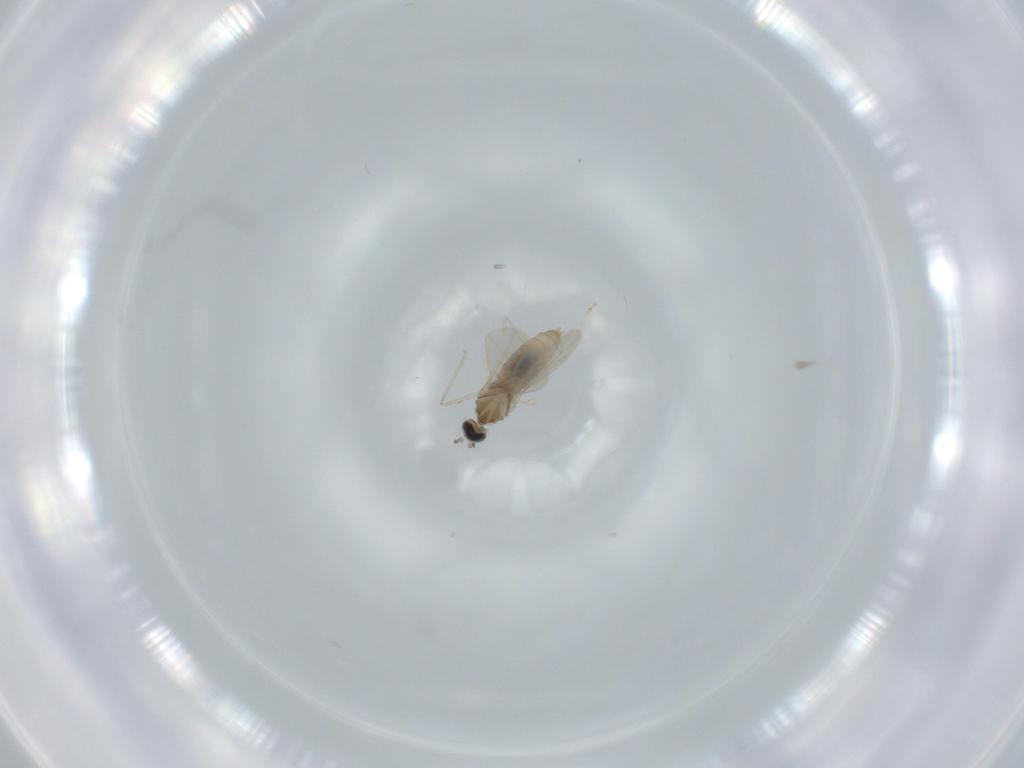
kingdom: Animalia
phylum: Arthropoda
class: Insecta
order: Diptera
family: Cecidomyiidae
